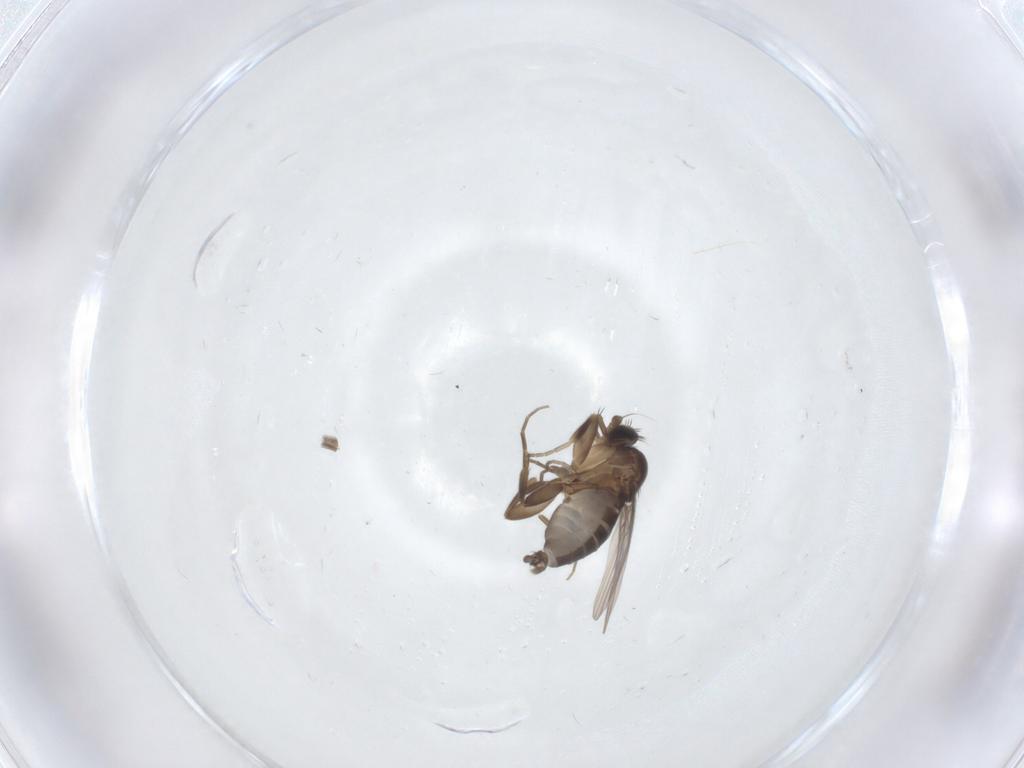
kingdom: Animalia
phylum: Arthropoda
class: Insecta
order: Diptera
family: Phoridae
